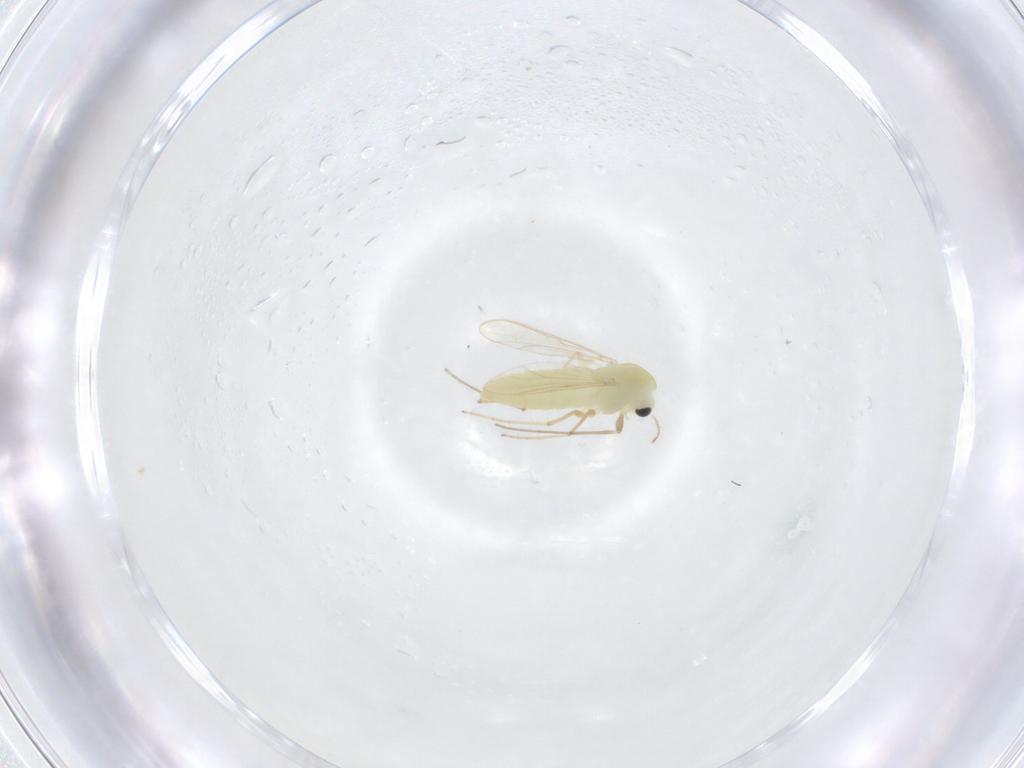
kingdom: Animalia
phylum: Arthropoda
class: Insecta
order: Diptera
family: Chironomidae
